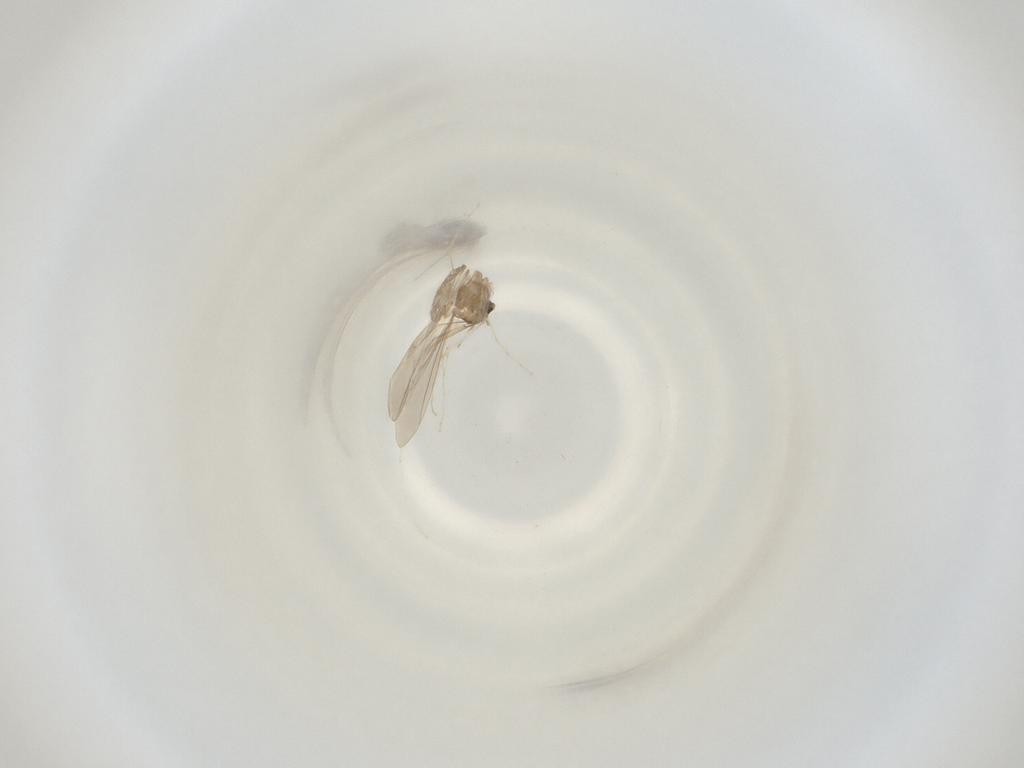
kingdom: Animalia
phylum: Arthropoda
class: Insecta
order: Diptera
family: Cecidomyiidae
